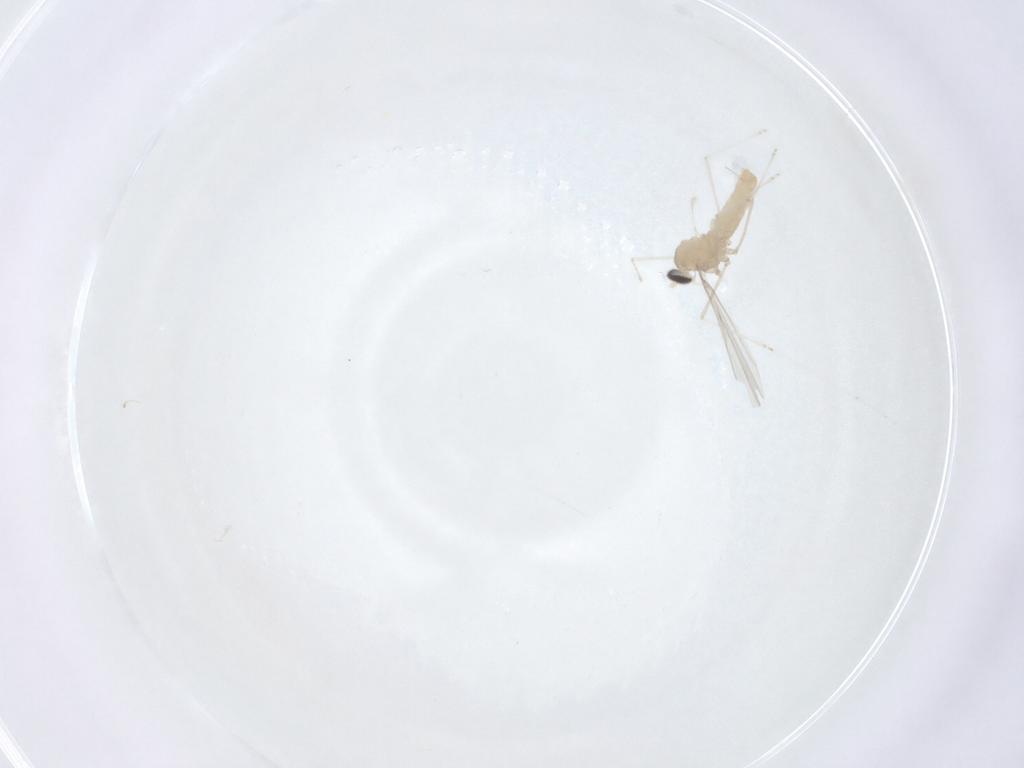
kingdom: Animalia
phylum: Arthropoda
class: Insecta
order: Diptera
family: Cecidomyiidae
